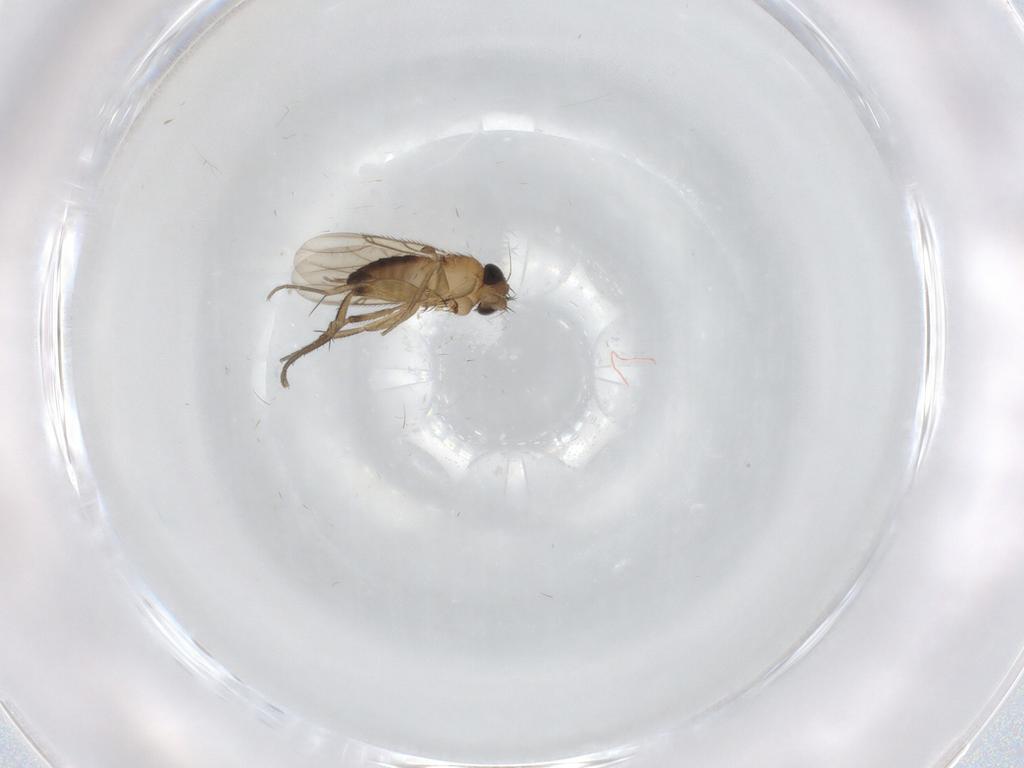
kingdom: Animalia
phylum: Arthropoda
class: Insecta
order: Diptera
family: Phoridae
